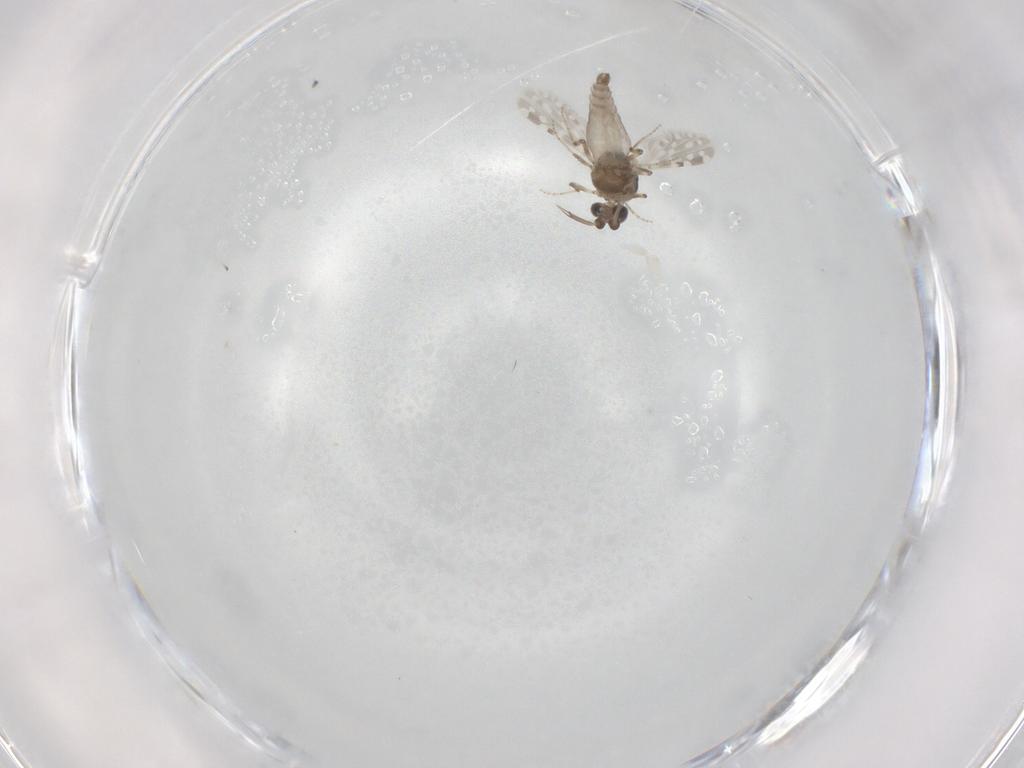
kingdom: Animalia
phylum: Arthropoda
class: Insecta
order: Diptera
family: Ceratopogonidae
